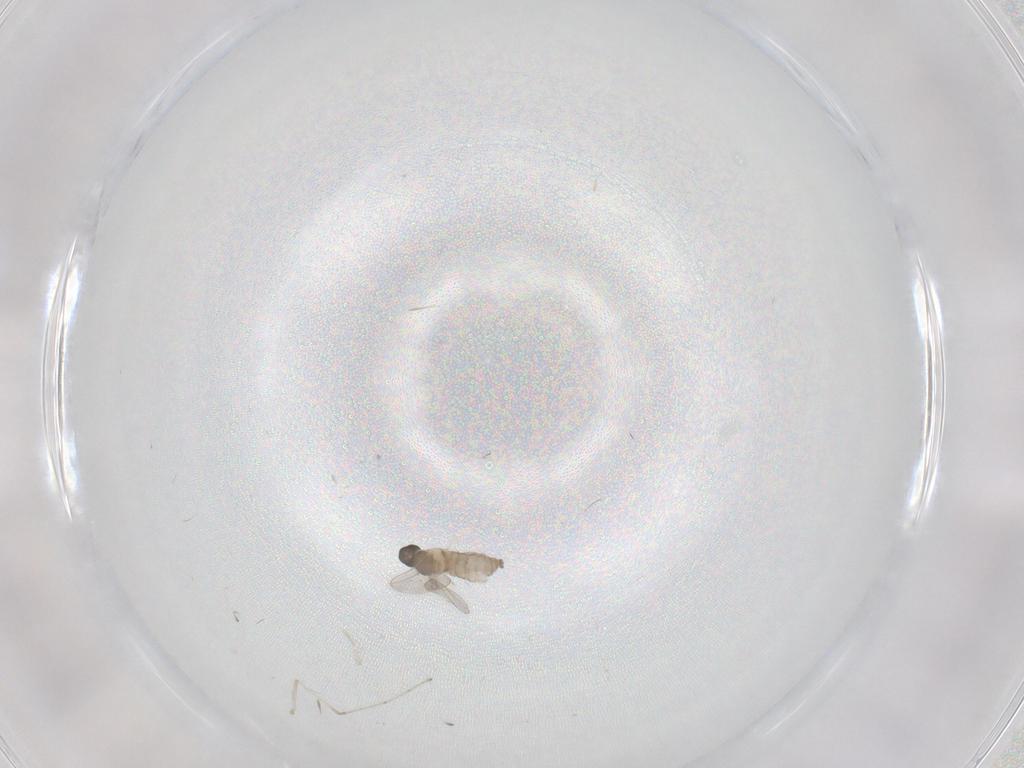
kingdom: Animalia
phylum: Arthropoda
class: Insecta
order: Diptera
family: Cecidomyiidae
